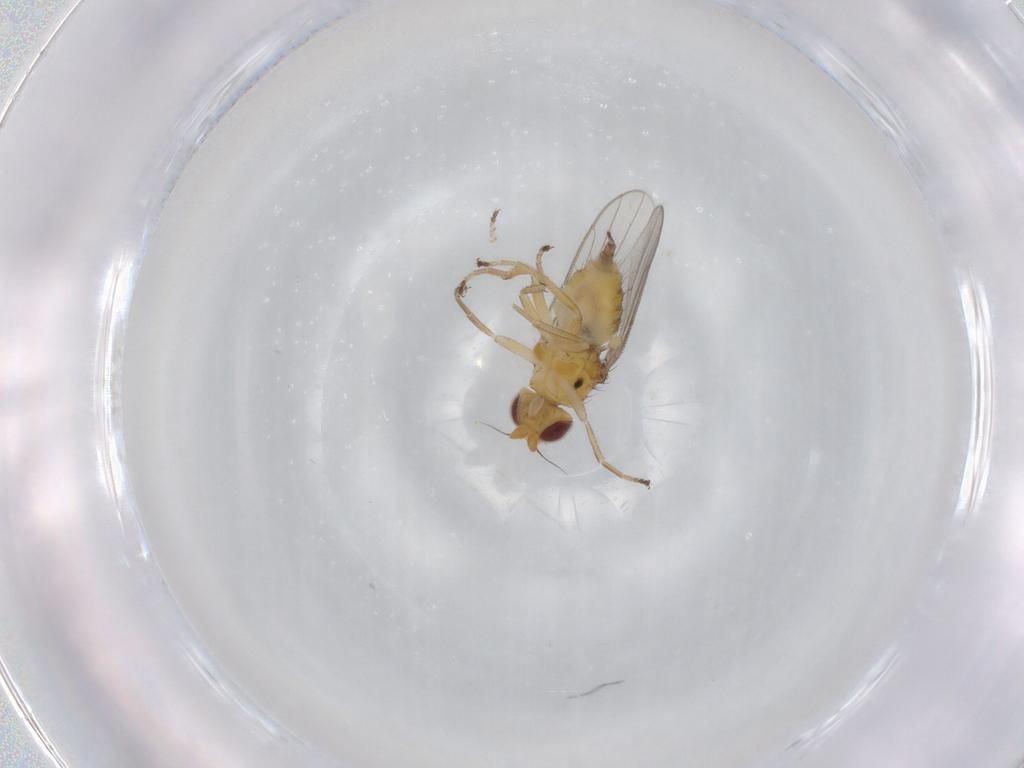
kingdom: Animalia
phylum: Arthropoda
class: Insecta
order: Diptera
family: Chloropidae
